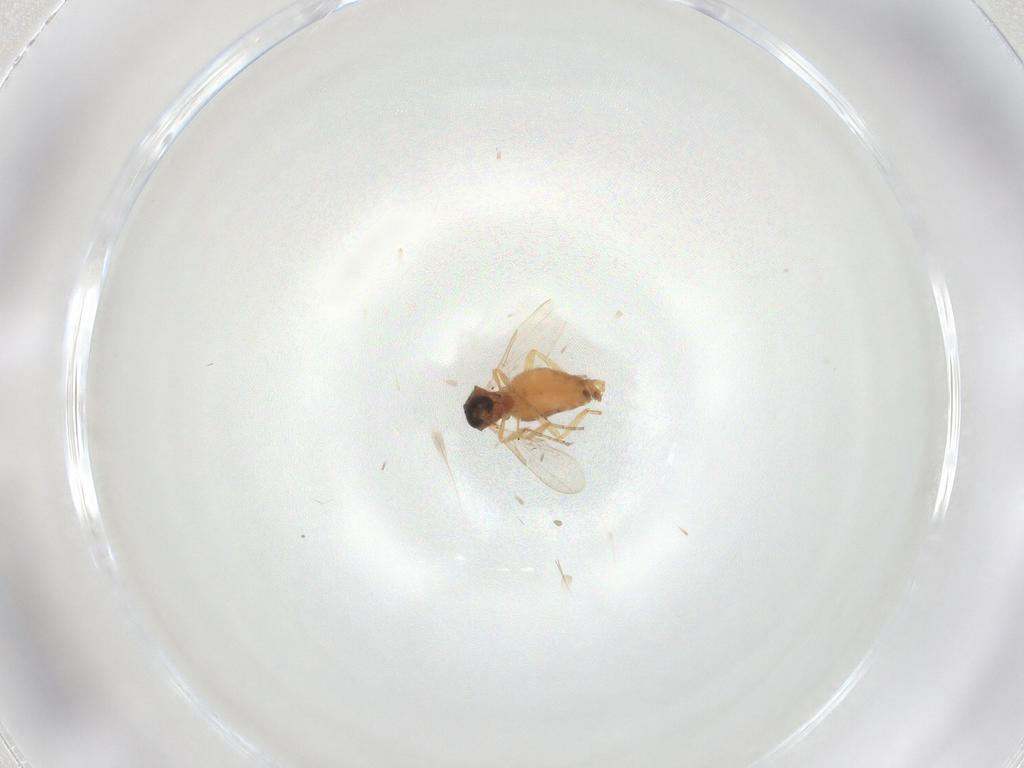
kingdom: Animalia
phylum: Arthropoda
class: Insecta
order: Diptera
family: Ceratopogonidae
